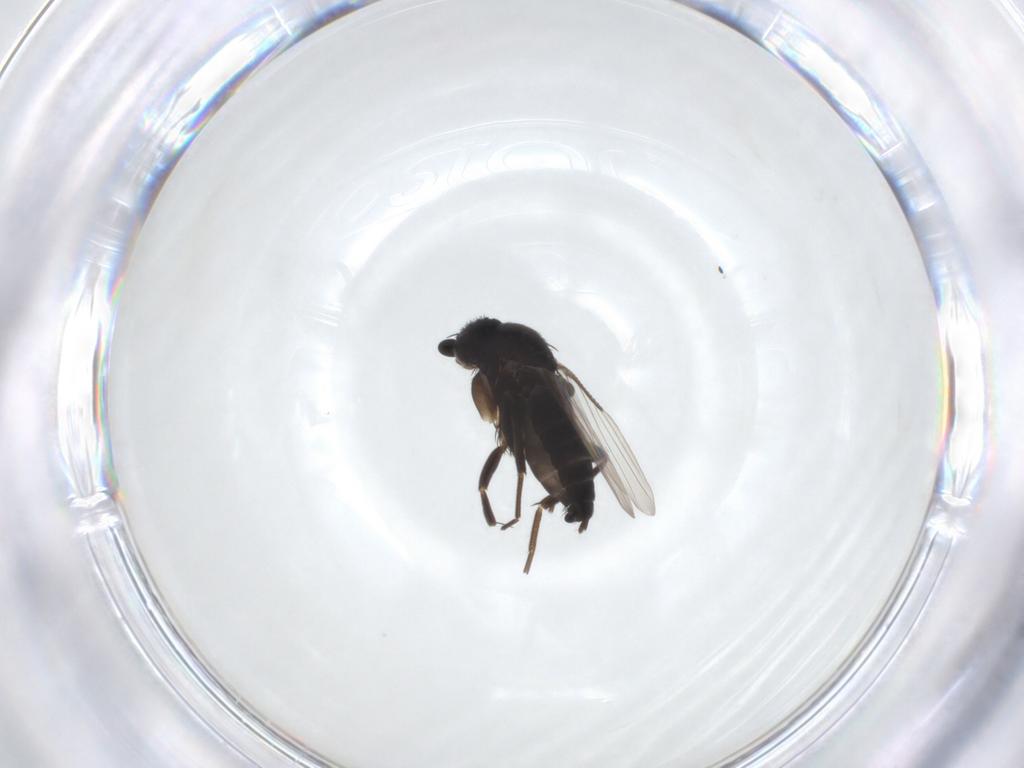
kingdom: Animalia
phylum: Arthropoda
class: Insecta
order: Diptera
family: Phoridae
